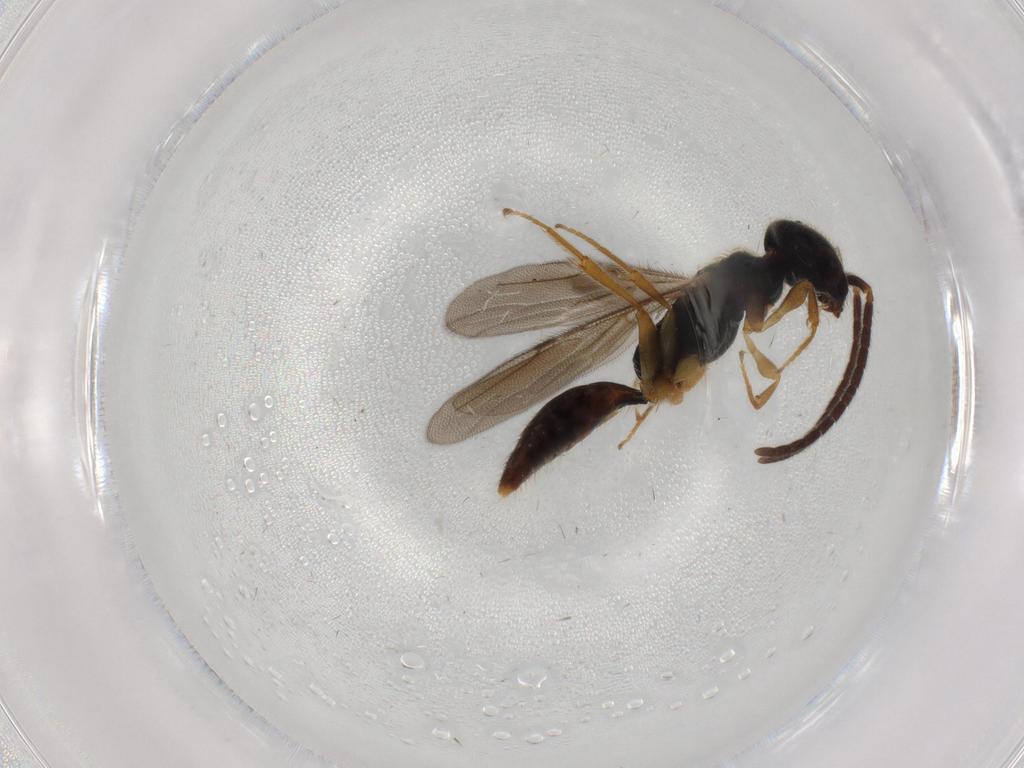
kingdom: Animalia
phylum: Arthropoda
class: Insecta
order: Hymenoptera
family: Bethylidae
